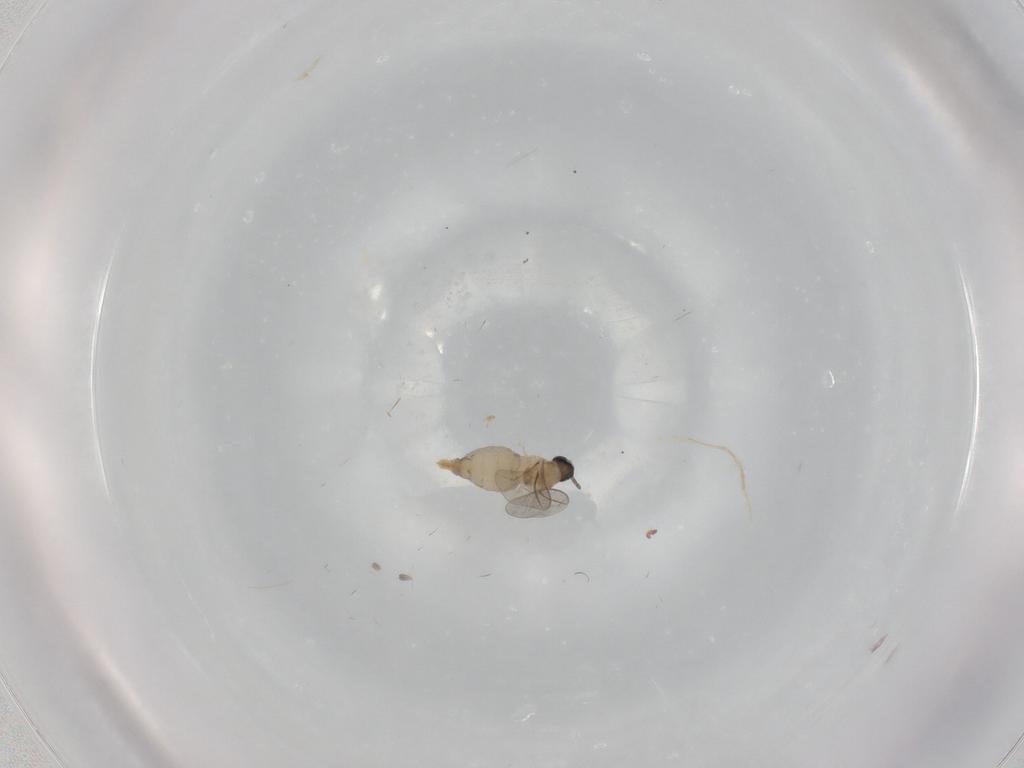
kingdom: Animalia
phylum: Arthropoda
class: Insecta
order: Diptera
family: Cecidomyiidae
